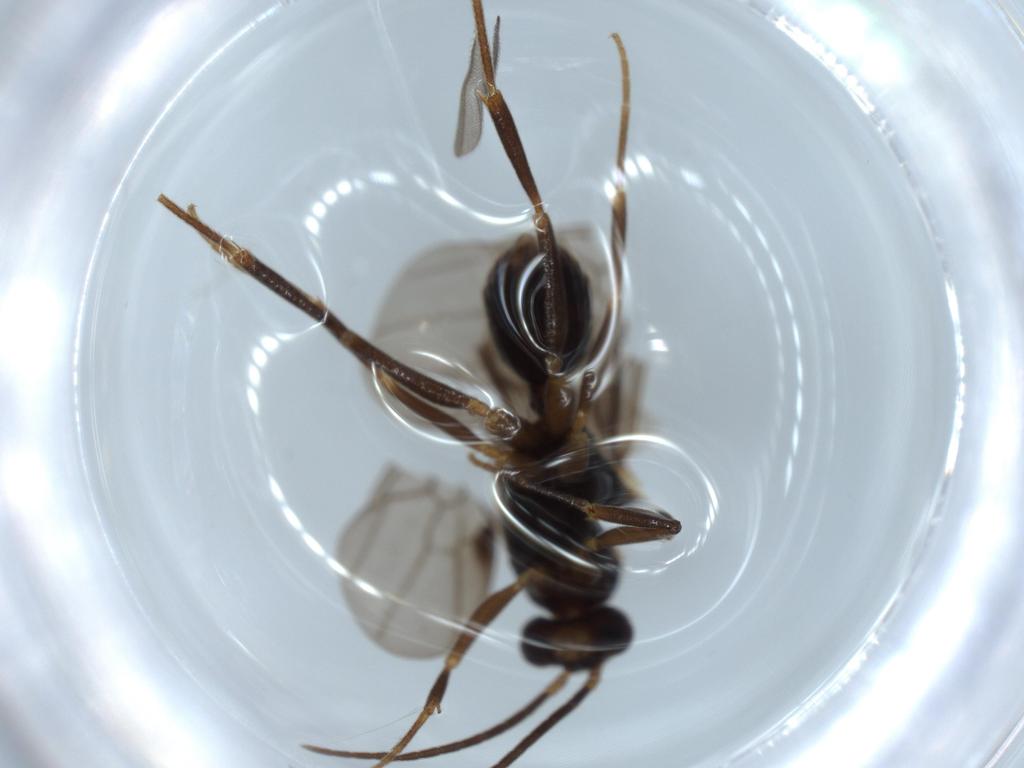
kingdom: Animalia
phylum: Arthropoda
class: Insecta
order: Hymenoptera
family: Formicidae
